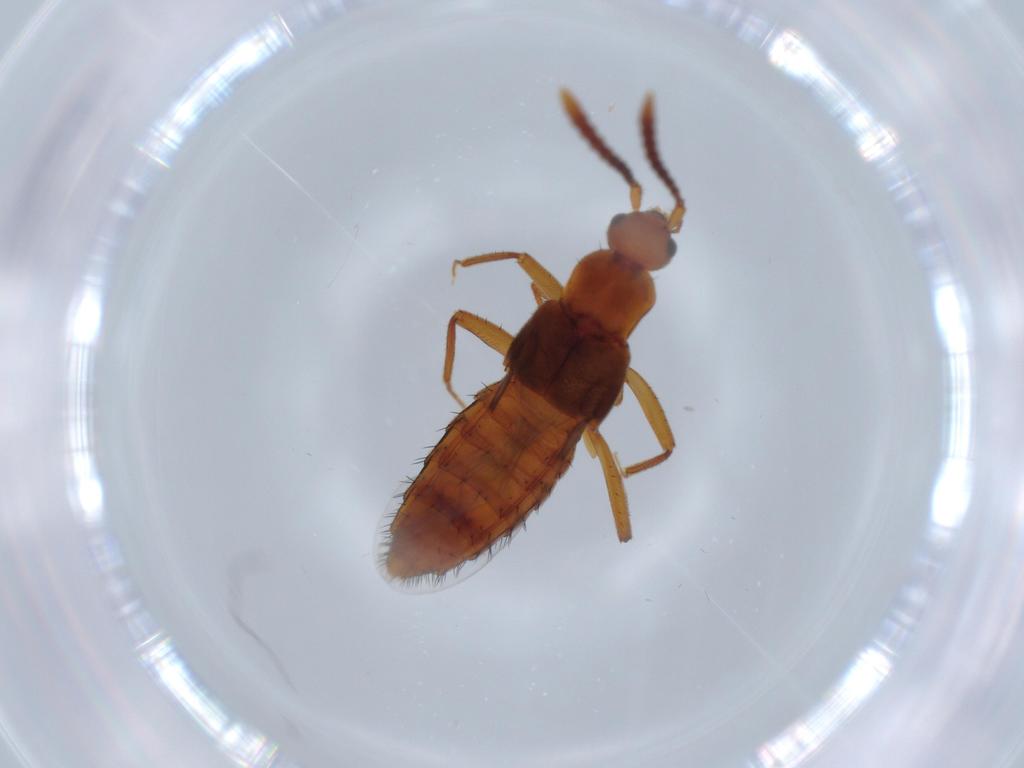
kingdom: Animalia
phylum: Arthropoda
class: Insecta
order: Coleoptera
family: Staphylinidae
